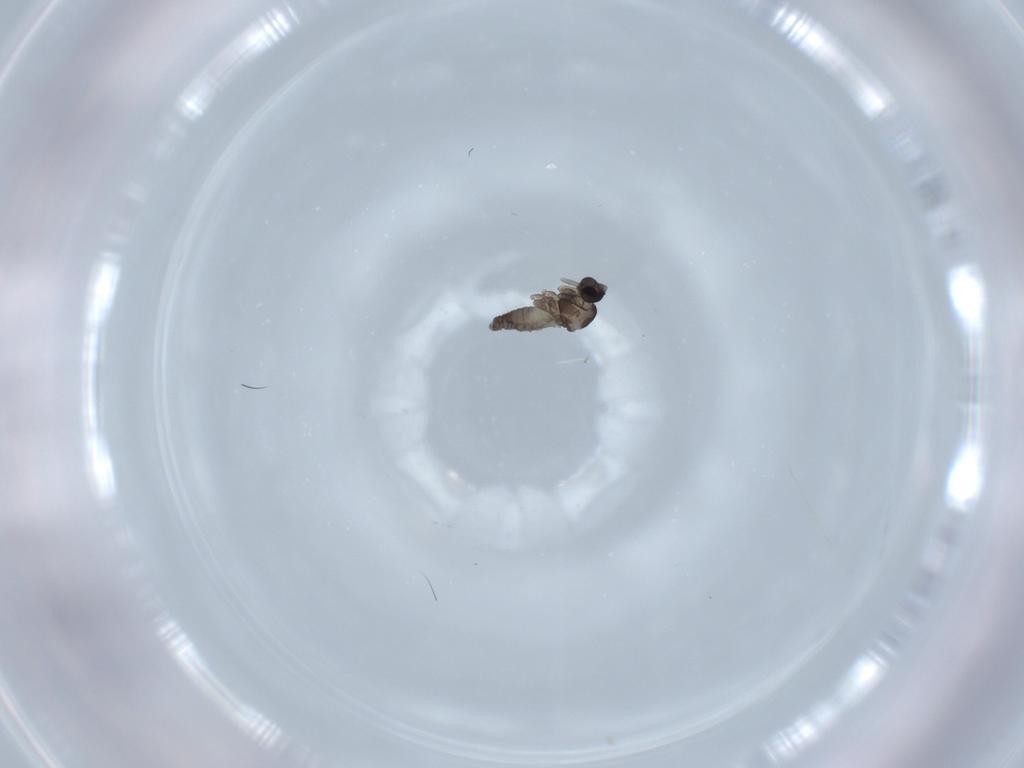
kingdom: Animalia
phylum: Arthropoda
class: Insecta
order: Diptera
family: Cecidomyiidae
